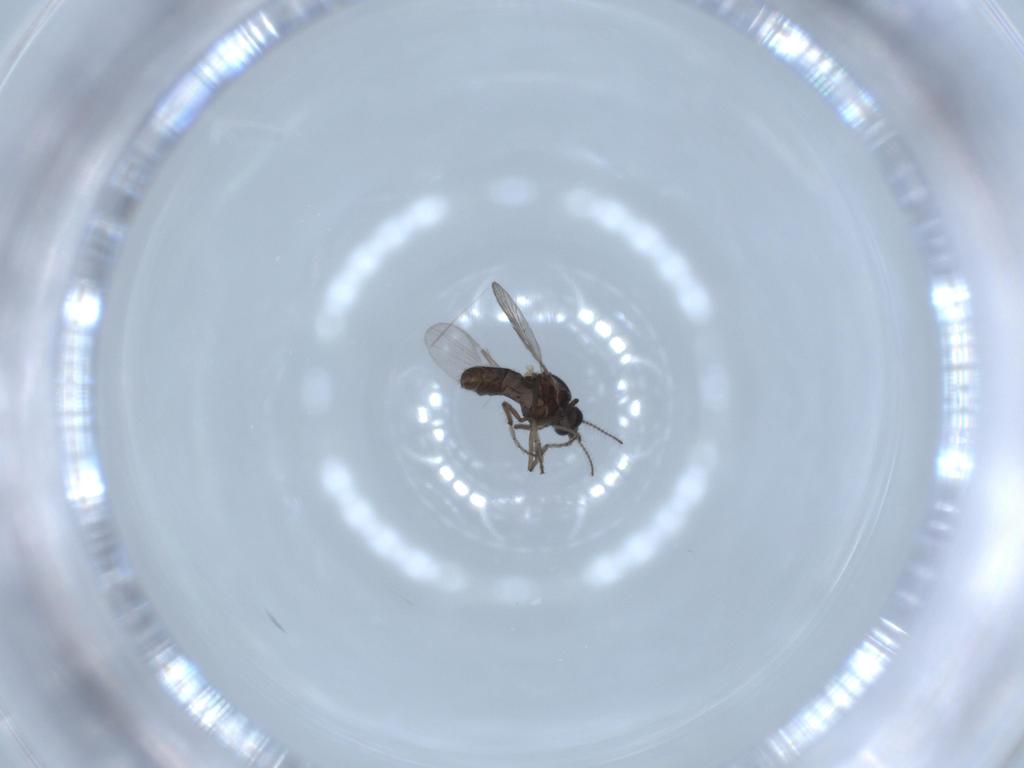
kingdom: Animalia
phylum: Arthropoda
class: Insecta
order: Diptera
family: Ceratopogonidae
